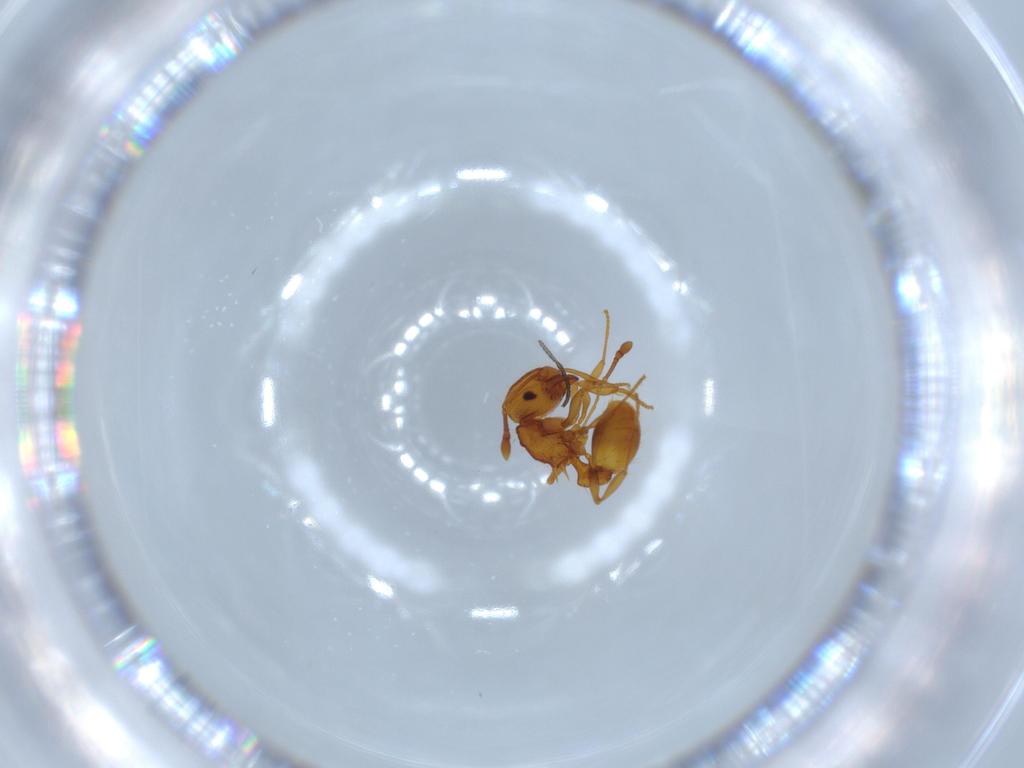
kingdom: Animalia
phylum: Arthropoda
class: Insecta
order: Hymenoptera
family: Formicidae
